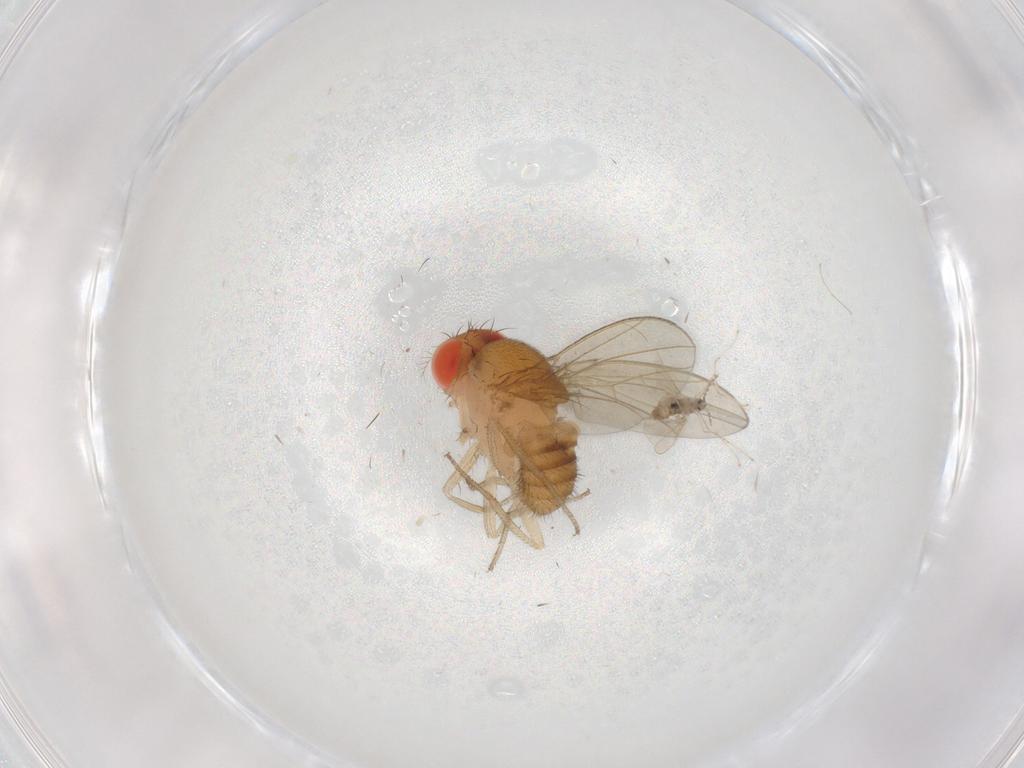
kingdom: Animalia
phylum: Arthropoda
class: Insecta
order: Diptera
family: Drosophilidae
